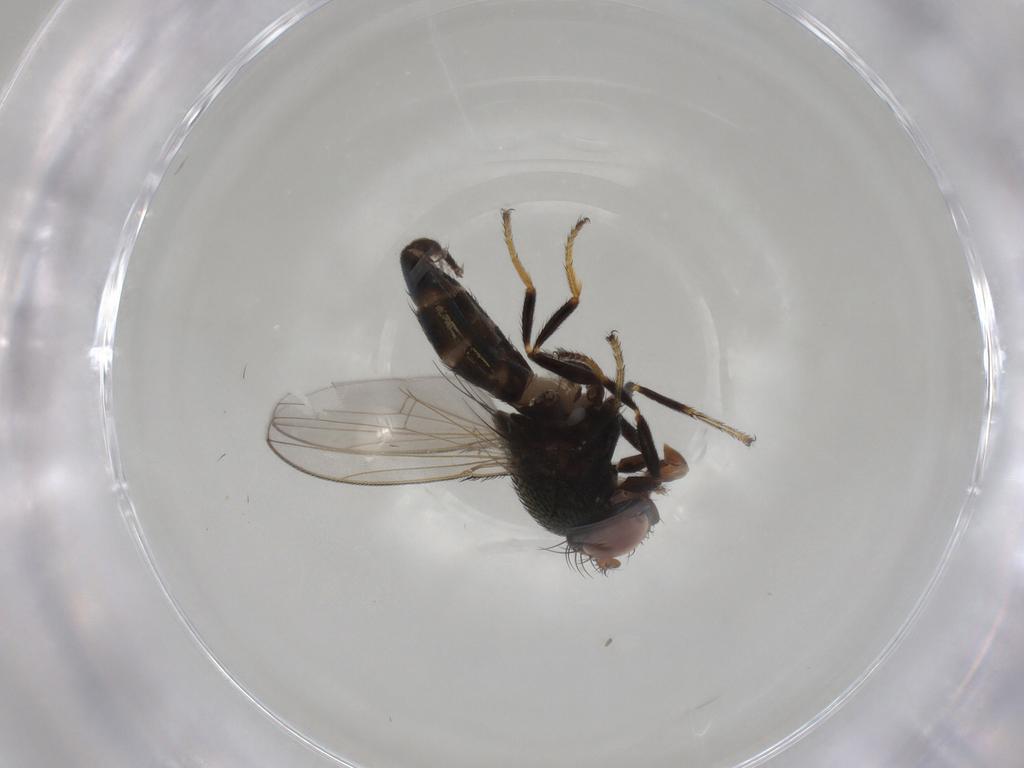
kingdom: Animalia
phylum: Arthropoda
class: Insecta
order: Diptera
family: Ephydridae
